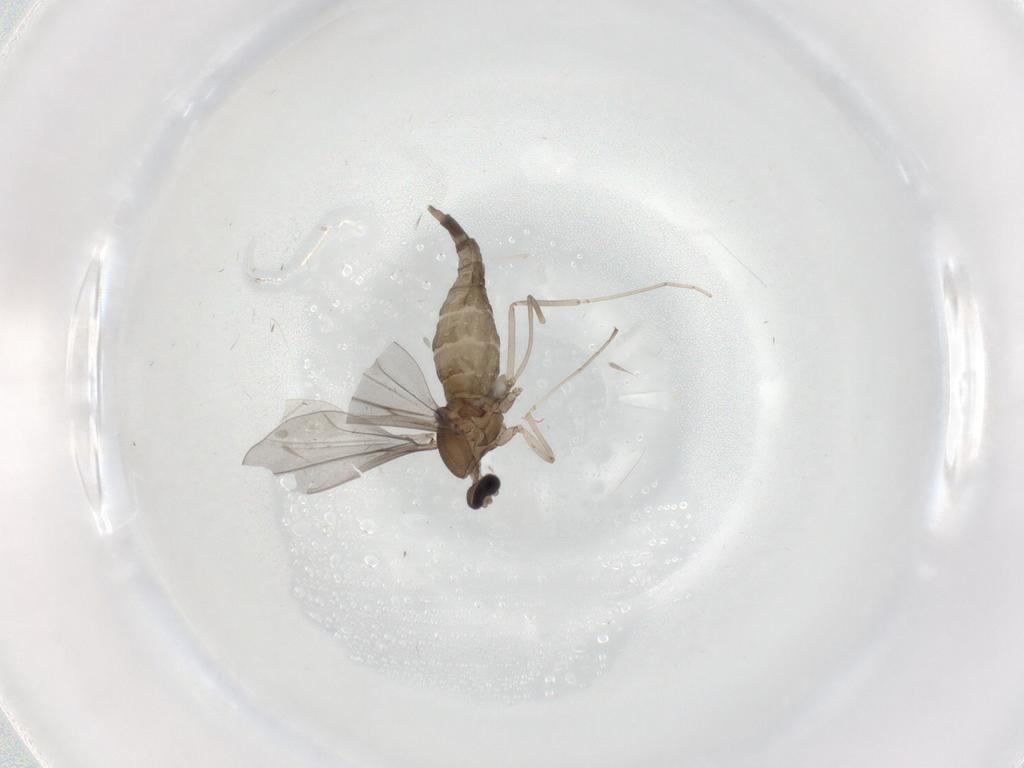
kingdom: Animalia
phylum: Arthropoda
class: Insecta
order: Diptera
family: Cecidomyiidae
